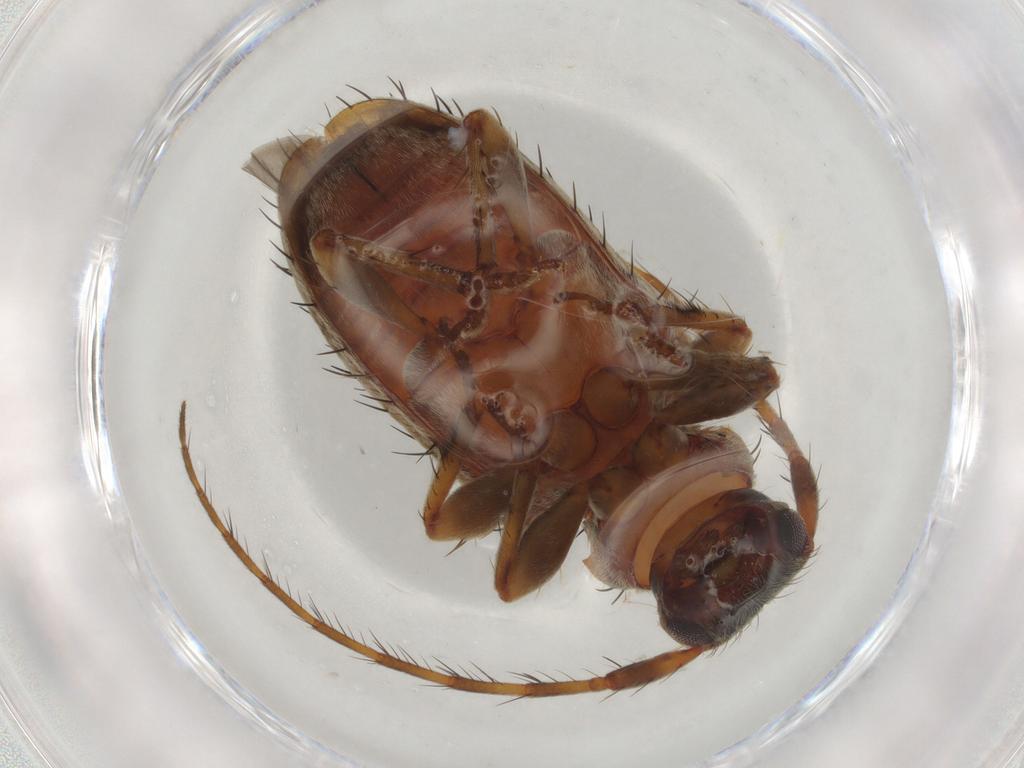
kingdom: Animalia
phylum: Arthropoda
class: Insecta
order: Coleoptera
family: Cerambycidae
